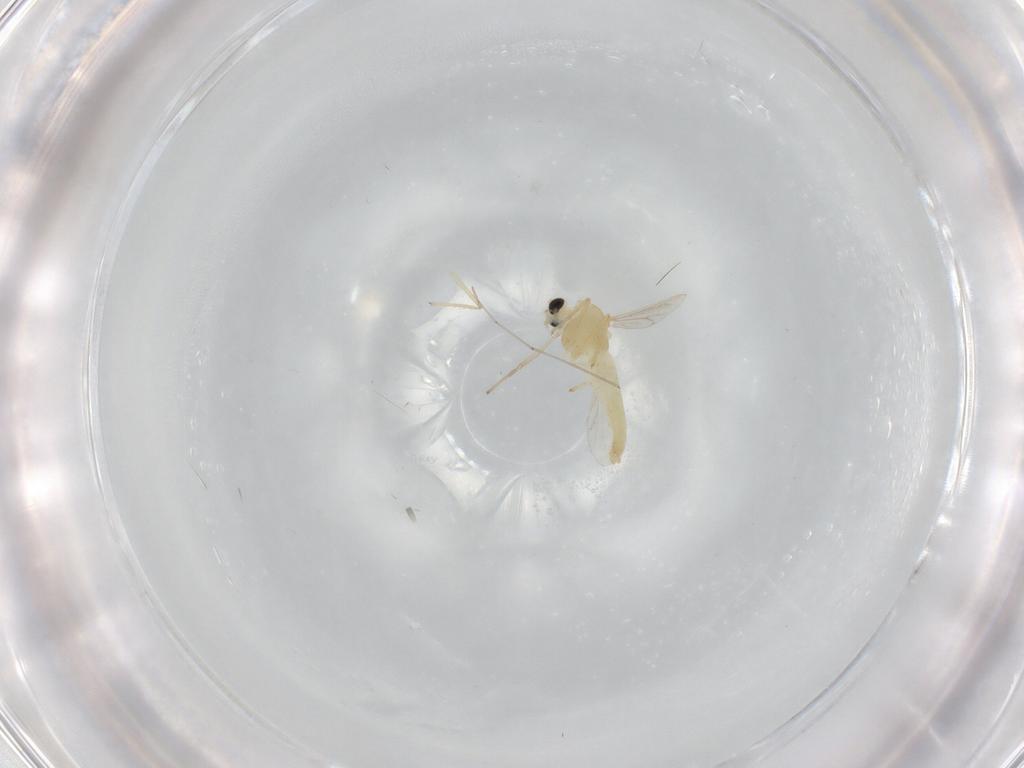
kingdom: Animalia
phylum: Arthropoda
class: Insecta
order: Diptera
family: Chironomidae
